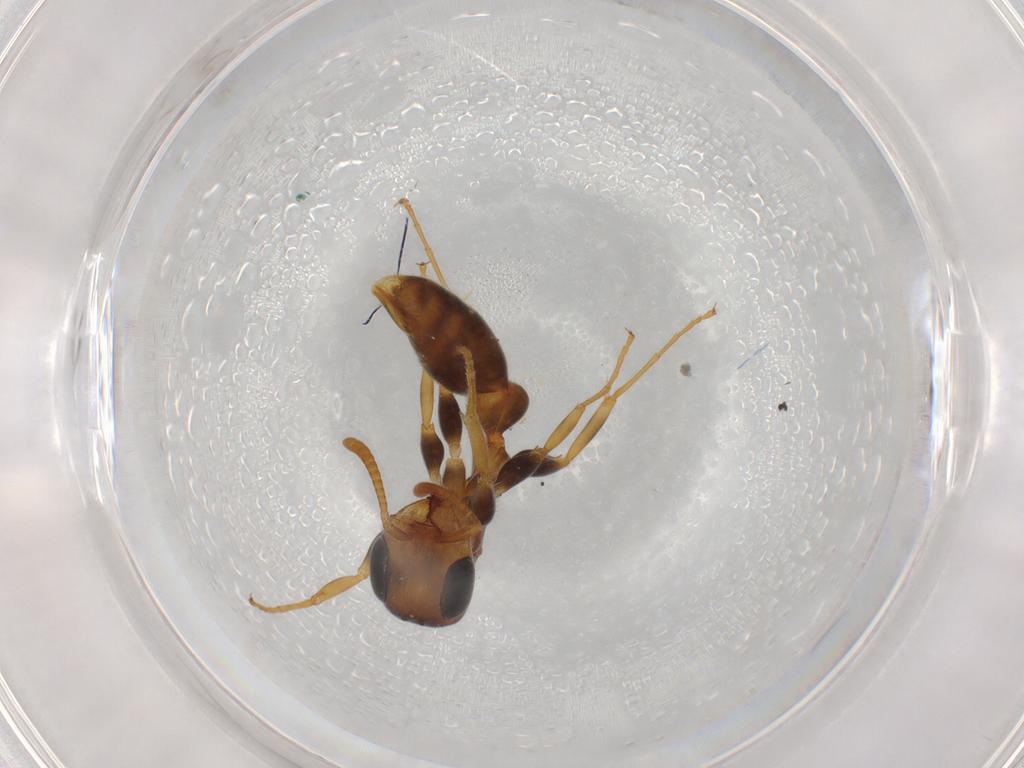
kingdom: Animalia
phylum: Arthropoda
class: Insecta
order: Hymenoptera
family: Formicidae
